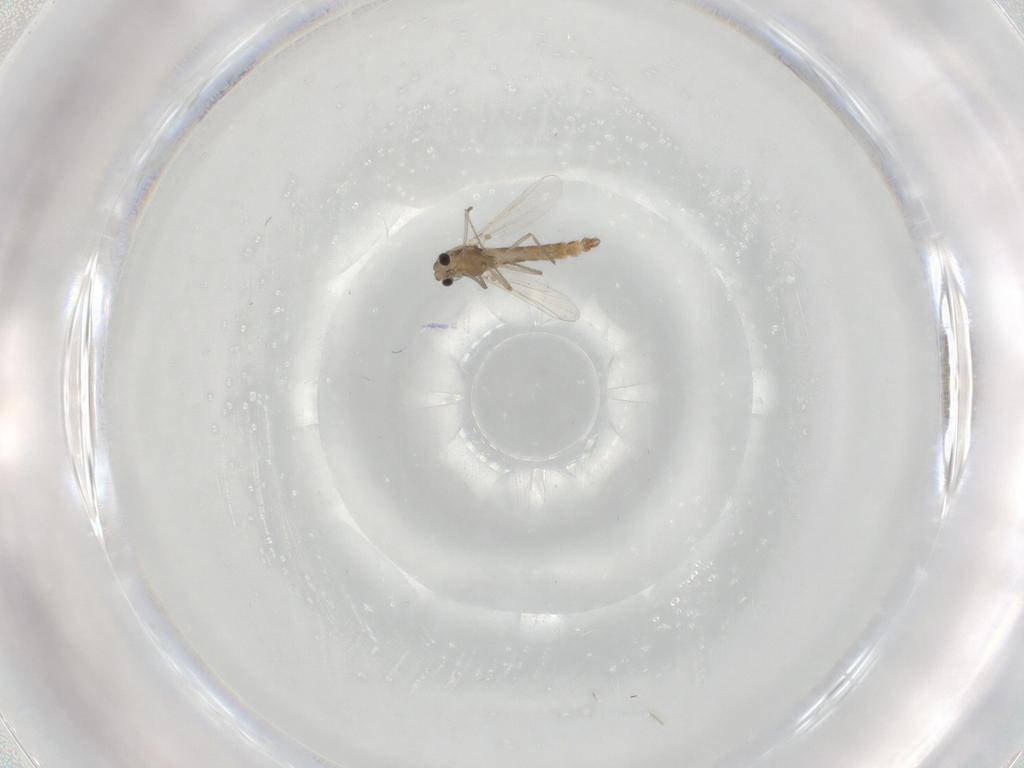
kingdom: Animalia
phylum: Arthropoda
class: Insecta
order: Diptera
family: Chironomidae
